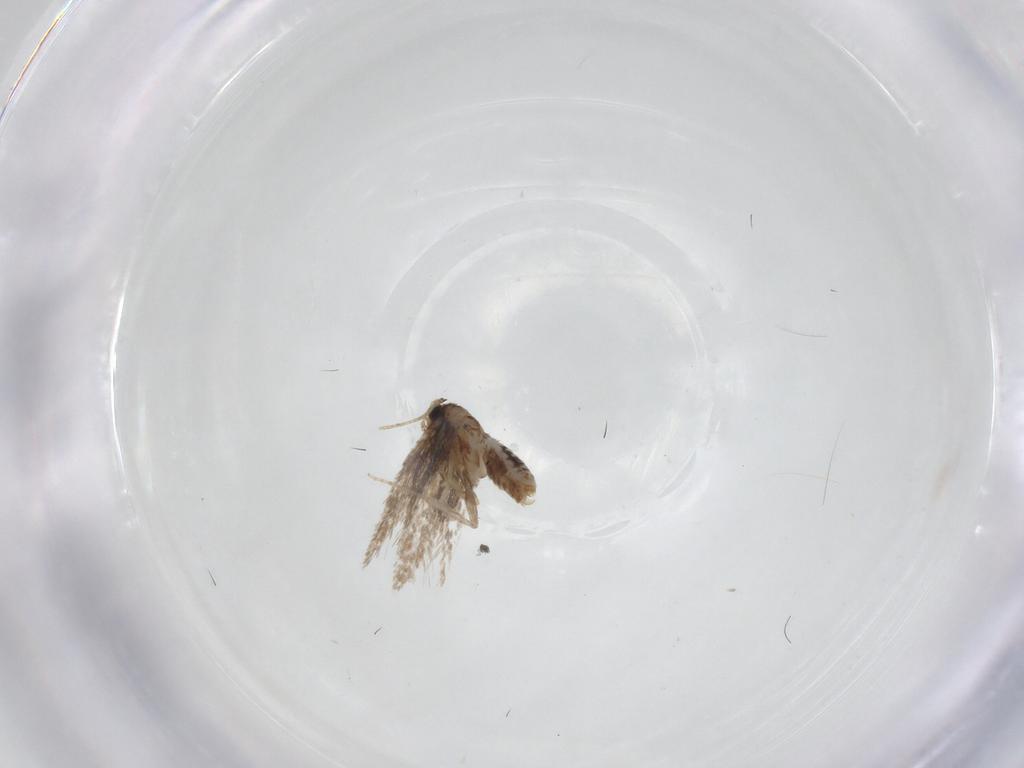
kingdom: Animalia
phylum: Arthropoda
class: Insecta
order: Lepidoptera
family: Nepticulidae
